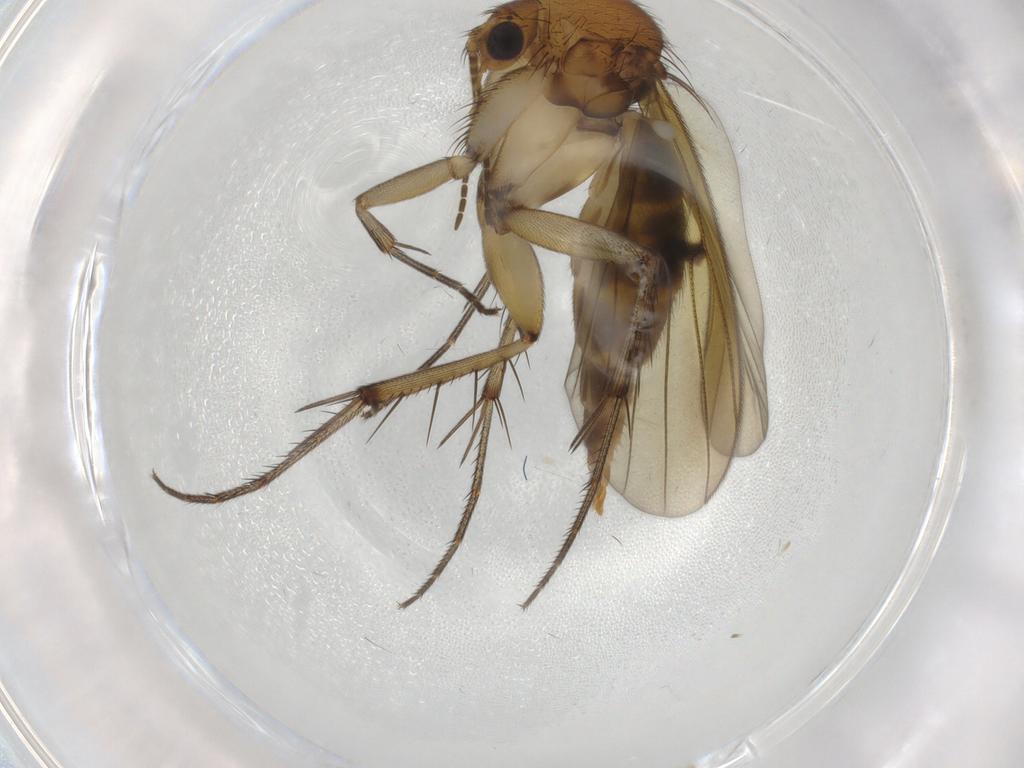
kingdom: Animalia
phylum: Arthropoda
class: Insecta
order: Diptera
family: Mycetophilidae
